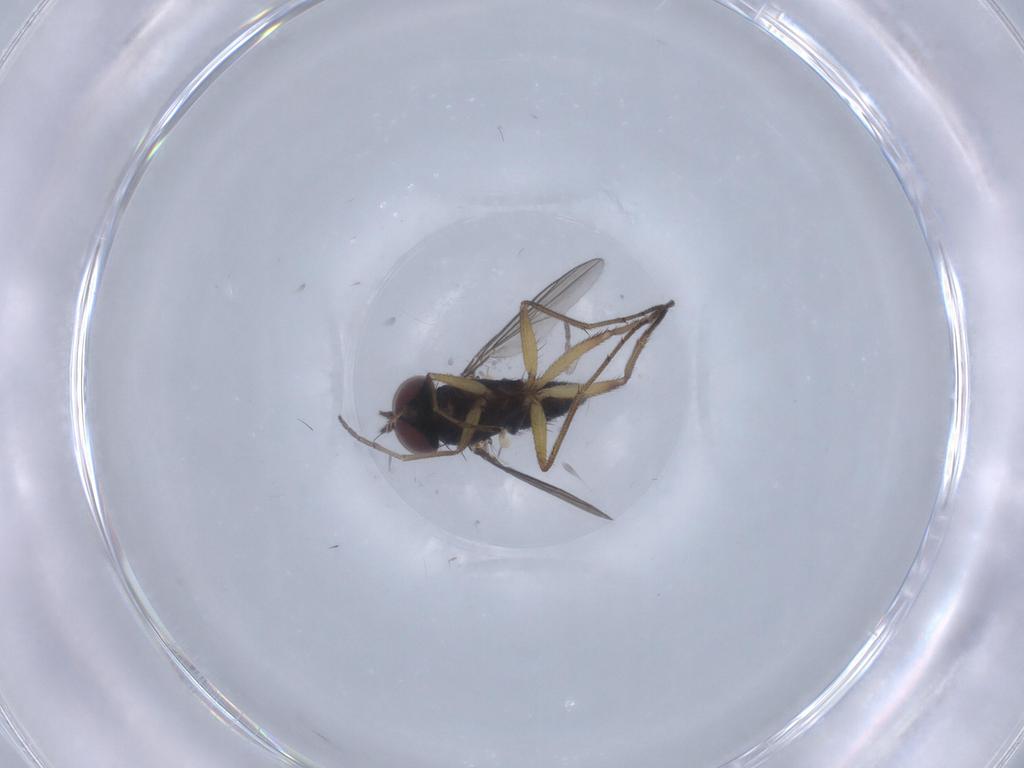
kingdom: Animalia
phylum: Arthropoda
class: Insecta
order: Diptera
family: Dolichopodidae
